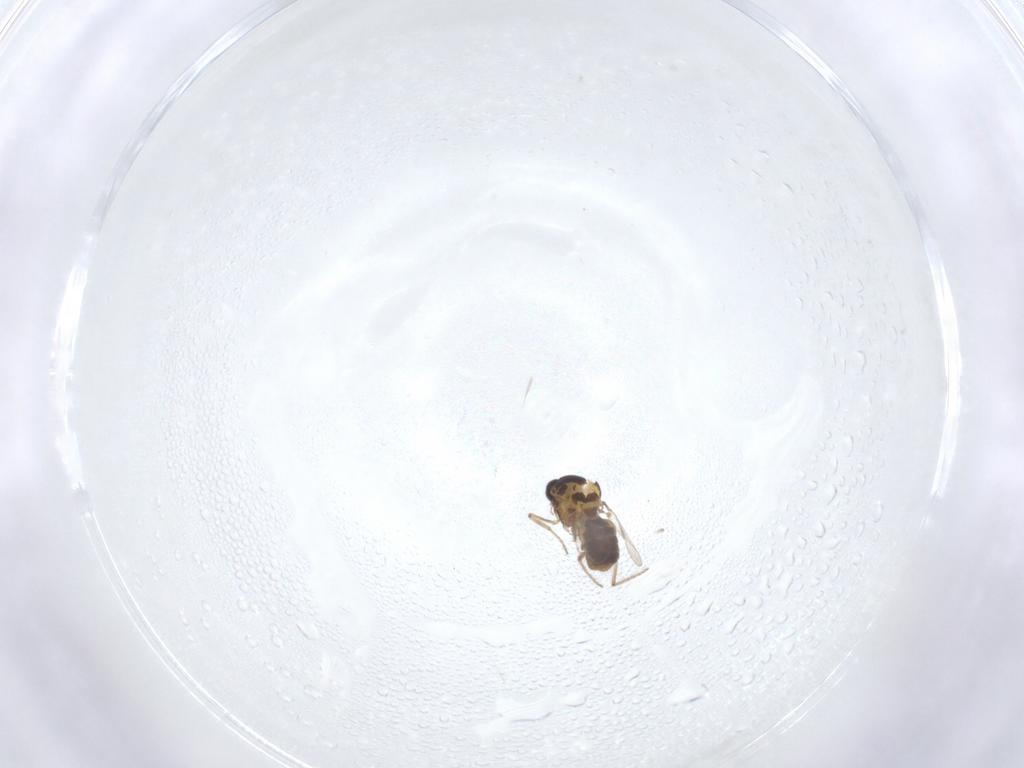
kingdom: Animalia
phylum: Arthropoda
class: Insecta
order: Diptera
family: Ceratopogonidae
